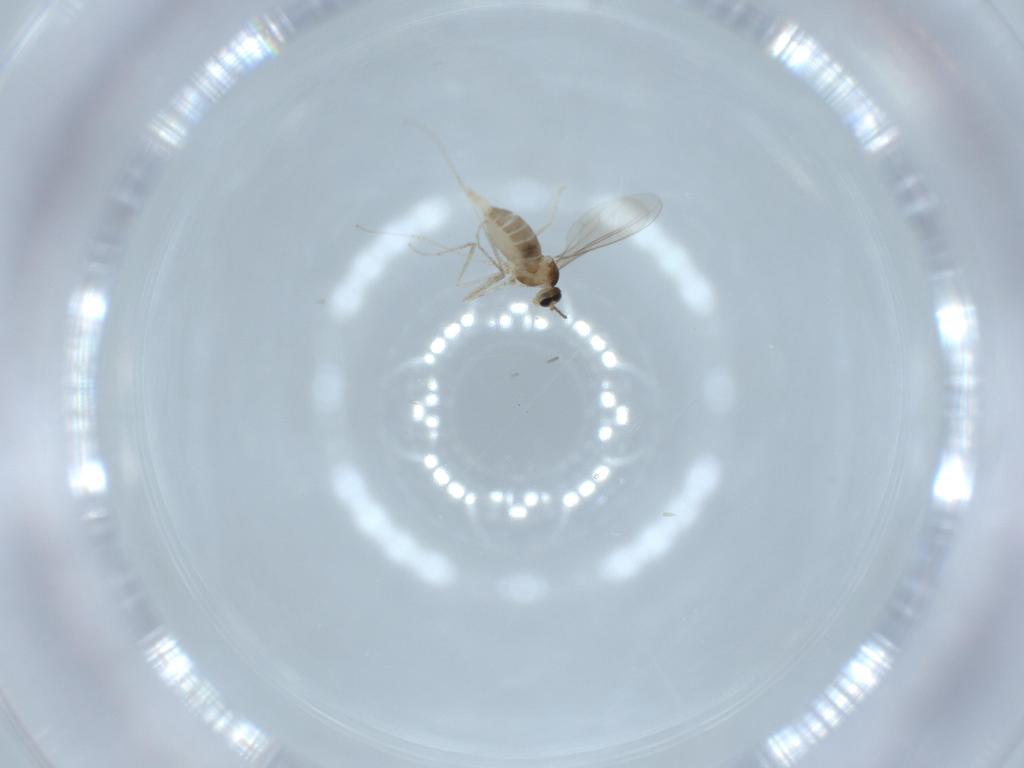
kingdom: Animalia
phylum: Arthropoda
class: Insecta
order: Diptera
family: Cecidomyiidae
